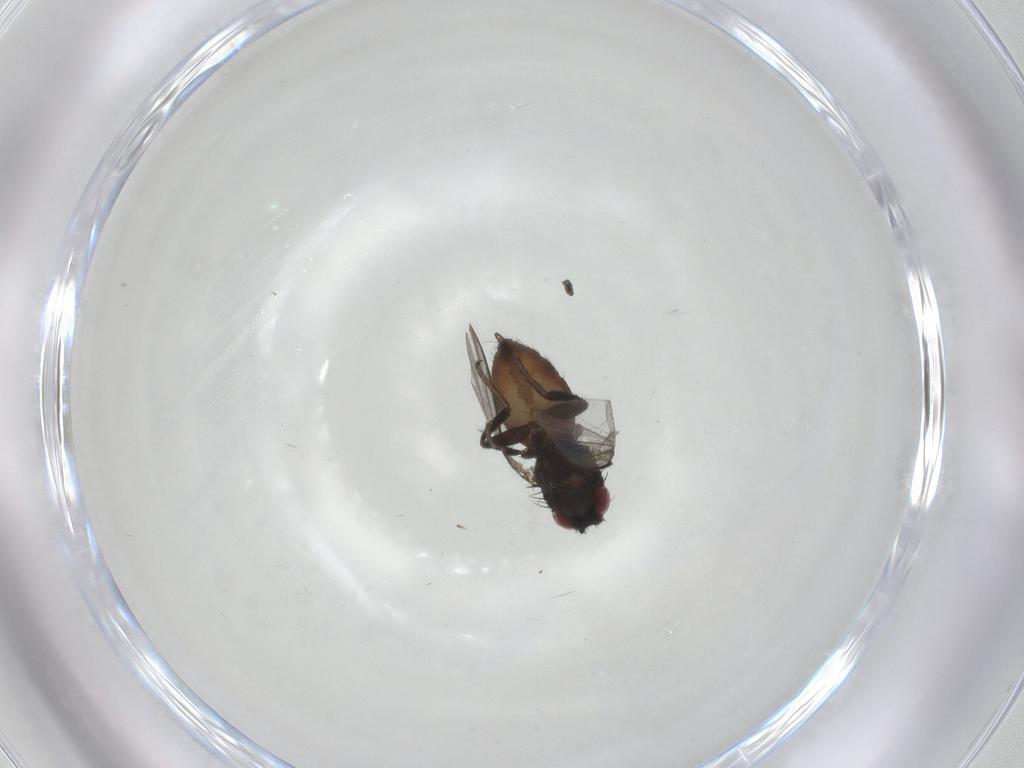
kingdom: Animalia
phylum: Arthropoda
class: Insecta
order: Diptera
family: Milichiidae
